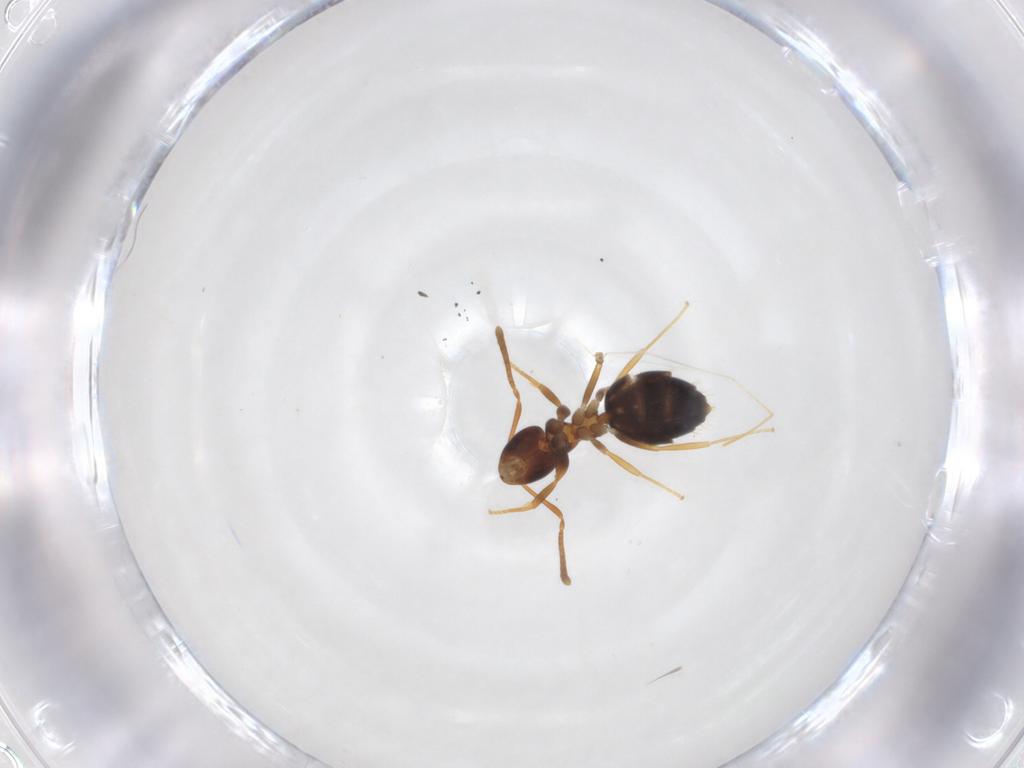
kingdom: Animalia
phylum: Arthropoda
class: Insecta
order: Hymenoptera
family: Formicidae
